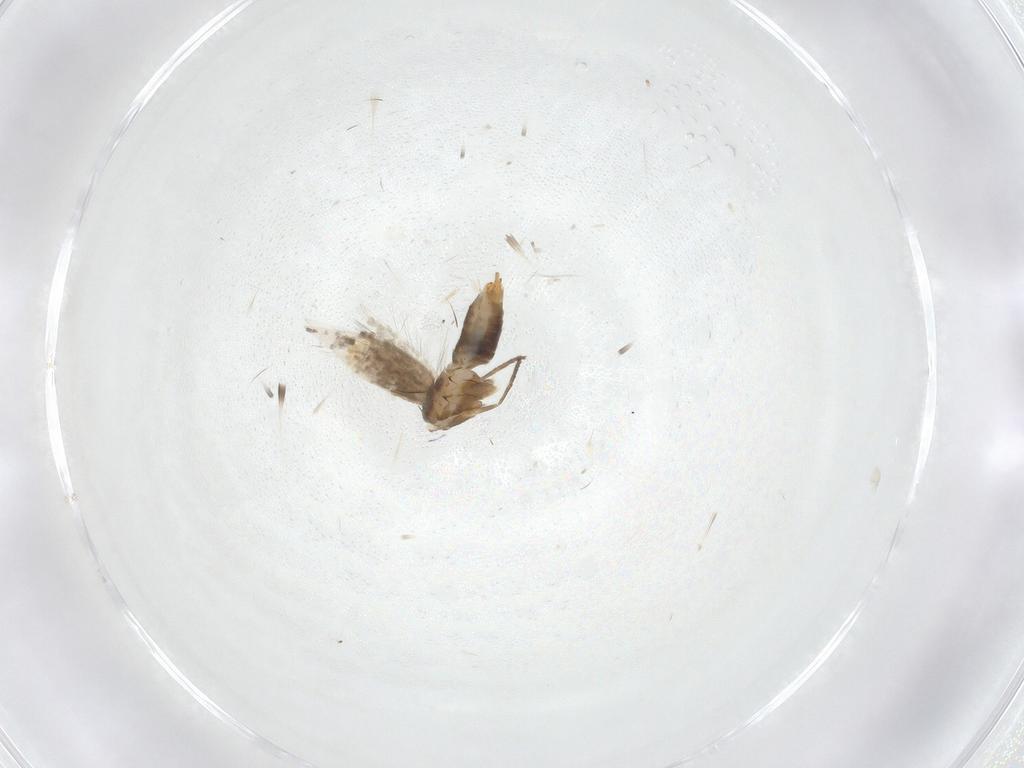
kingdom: Animalia
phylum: Arthropoda
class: Insecta
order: Lepidoptera
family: Heliozelidae
